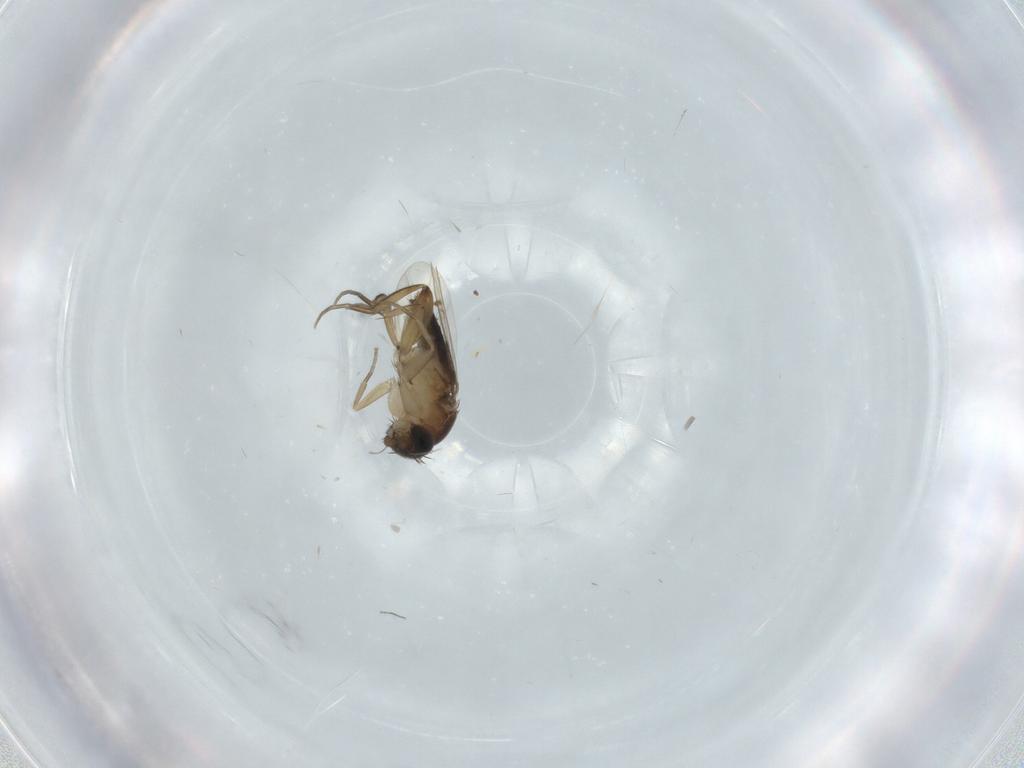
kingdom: Animalia
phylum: Arthropoda
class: Insecta
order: Diptera
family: Phoridae
